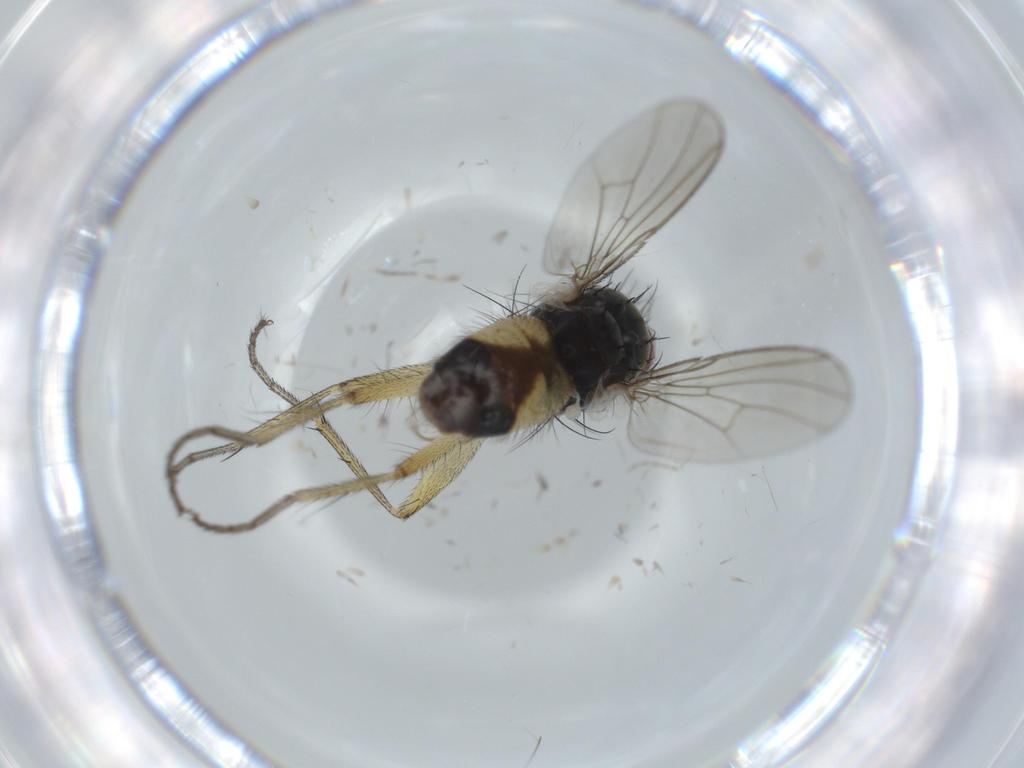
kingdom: Animalia
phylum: Arthropoda
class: Insecta
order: Diptera
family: Muscidae
